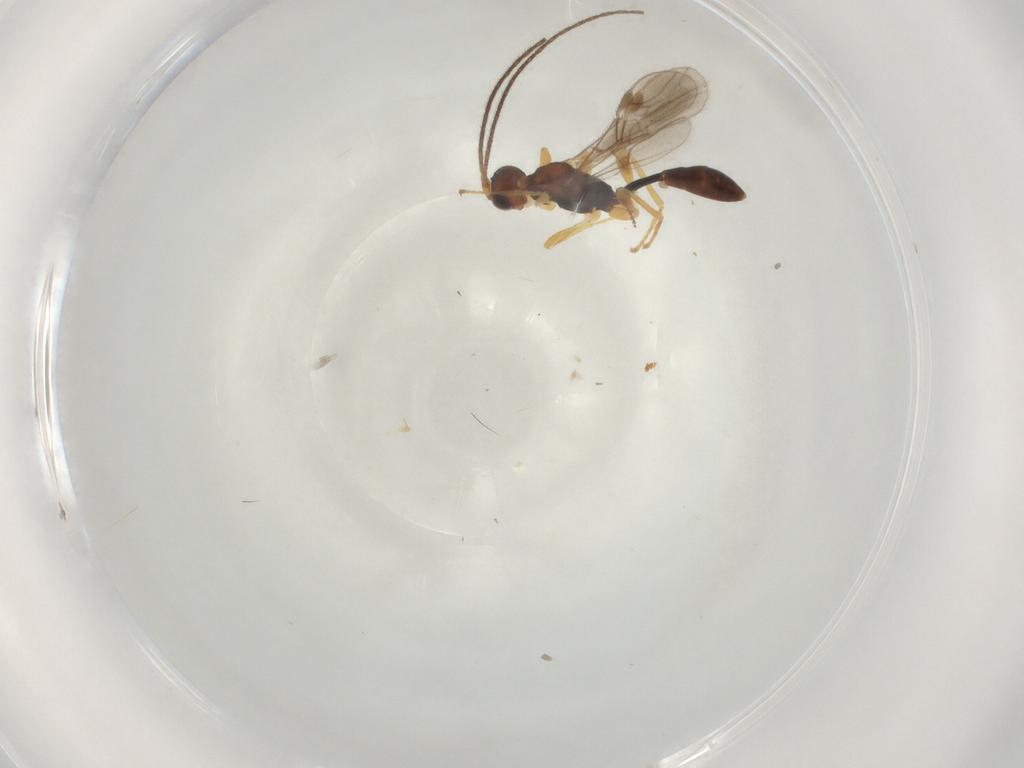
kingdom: Animalia
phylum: Arthropoda
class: Insecta
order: Hymenoptera
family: Braconidae
